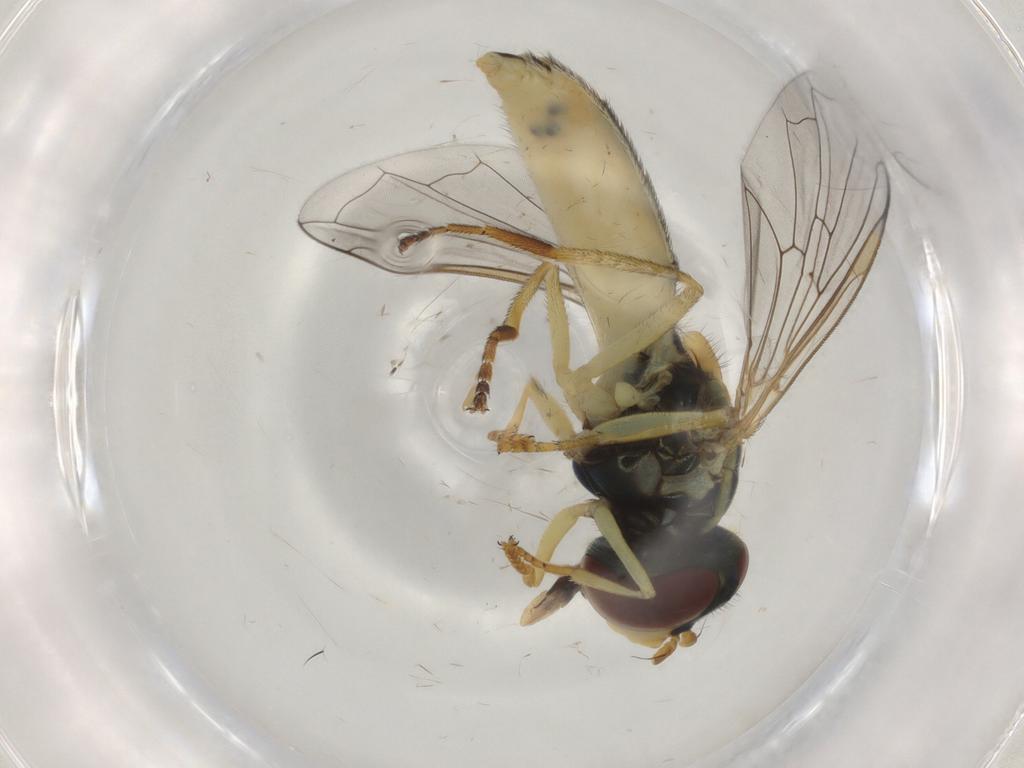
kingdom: Animalia
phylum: Arthropoda
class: Insecta
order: Diptera
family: Syrphidae
